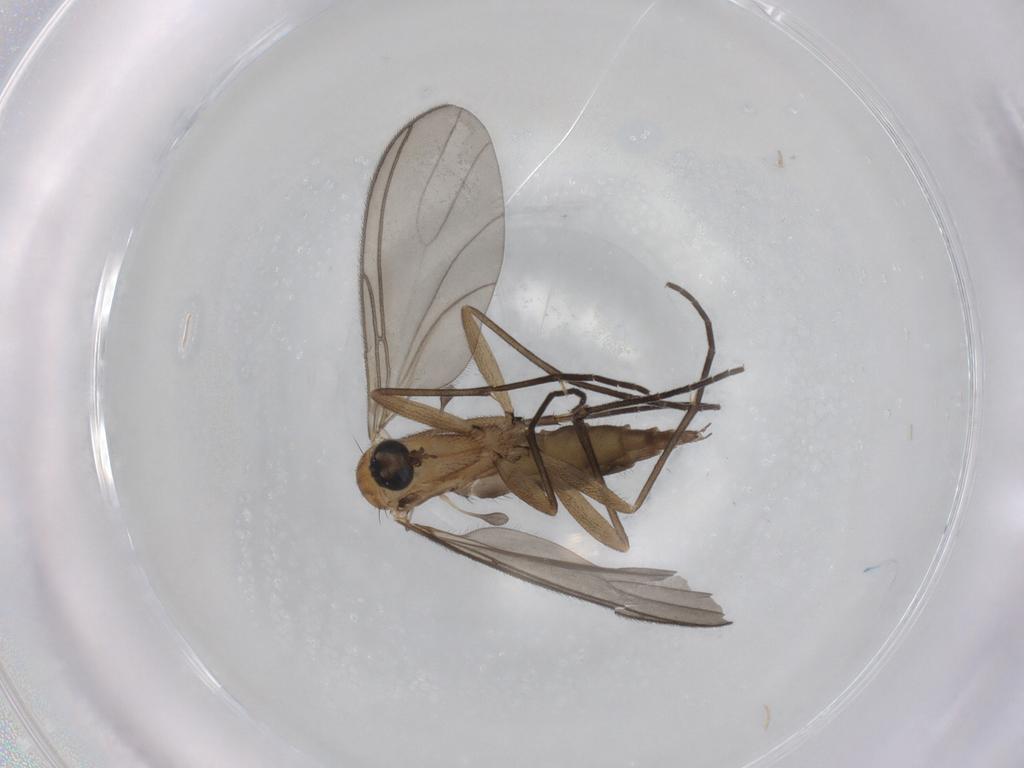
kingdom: Animalia
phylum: Arthropoda
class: Insecta
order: Diptera
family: Sciaridae
